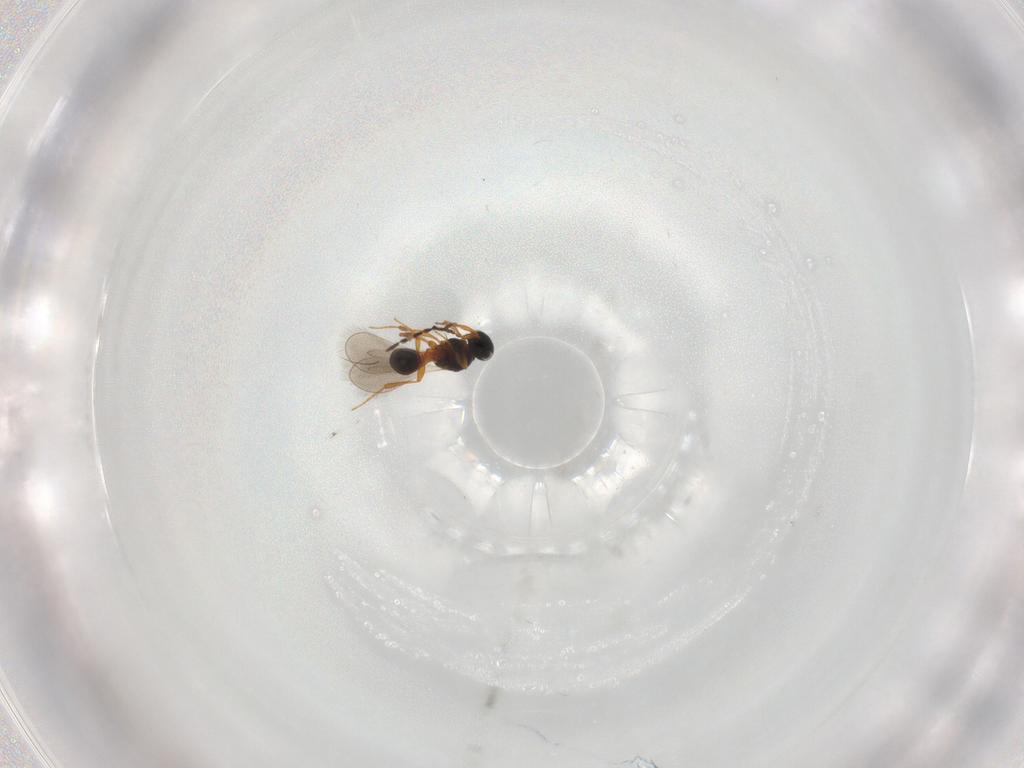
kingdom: Animalia
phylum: Arthropoda
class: Insecta
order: Hymenoptera
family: Platygastridae
